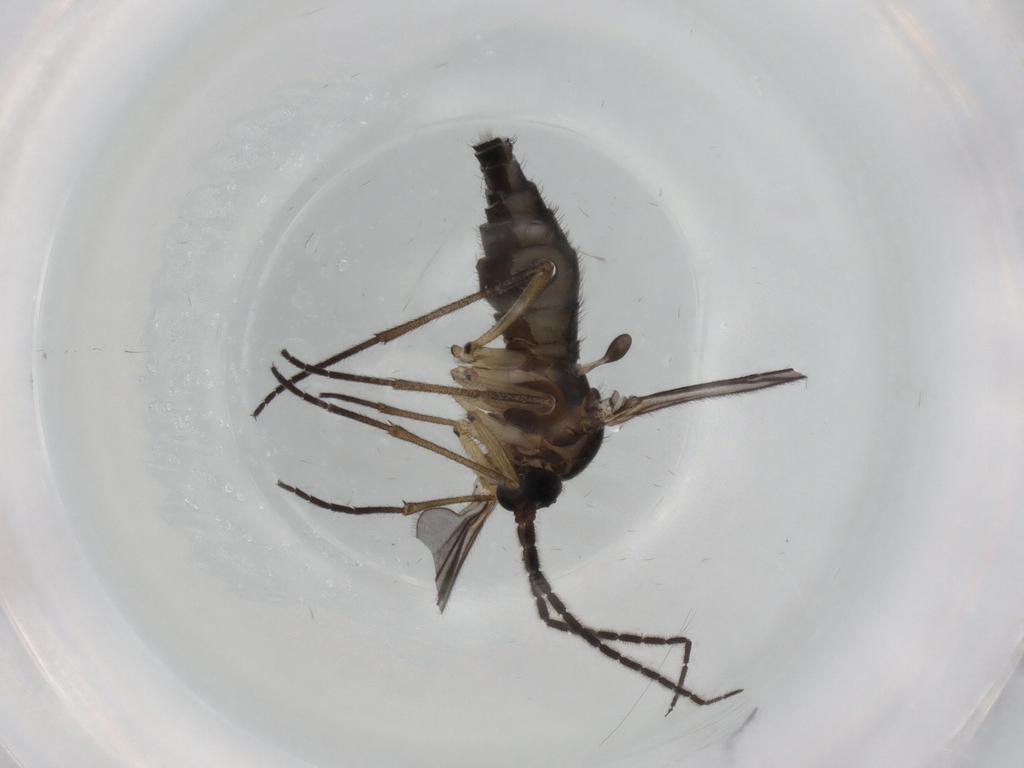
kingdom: Animalia
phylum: Arthropoda
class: Insecta
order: Diptera
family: Sciaridae
